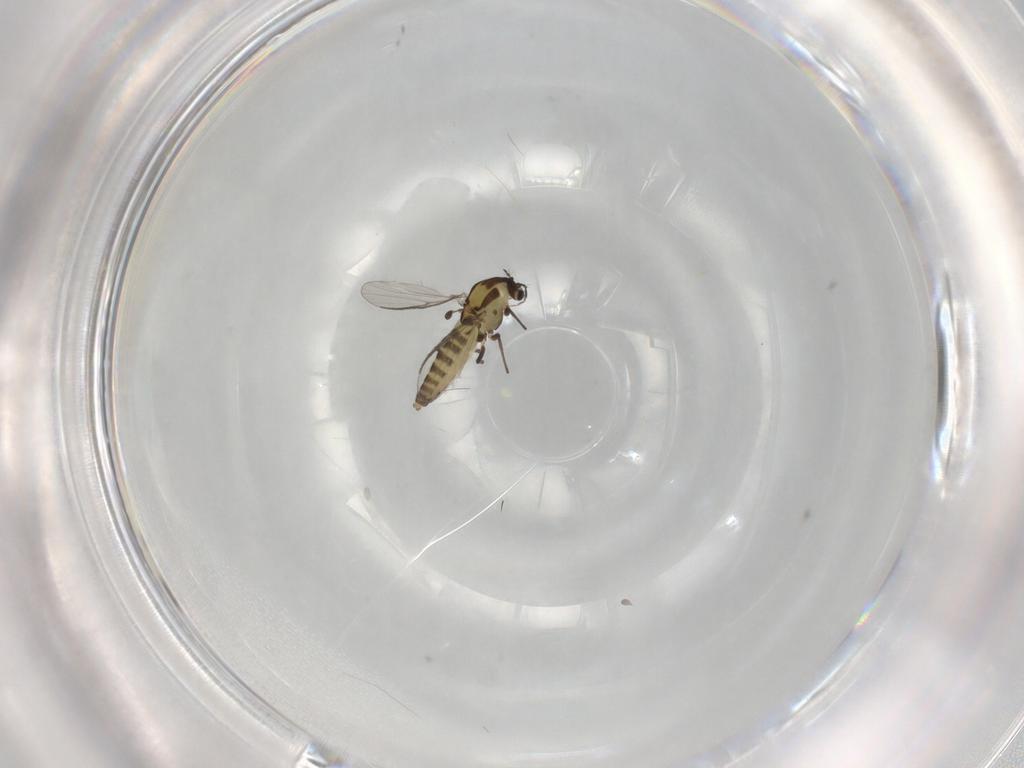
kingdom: Animalia
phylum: Arthropoda
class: Insecta
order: Diptera
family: Chironomidae
